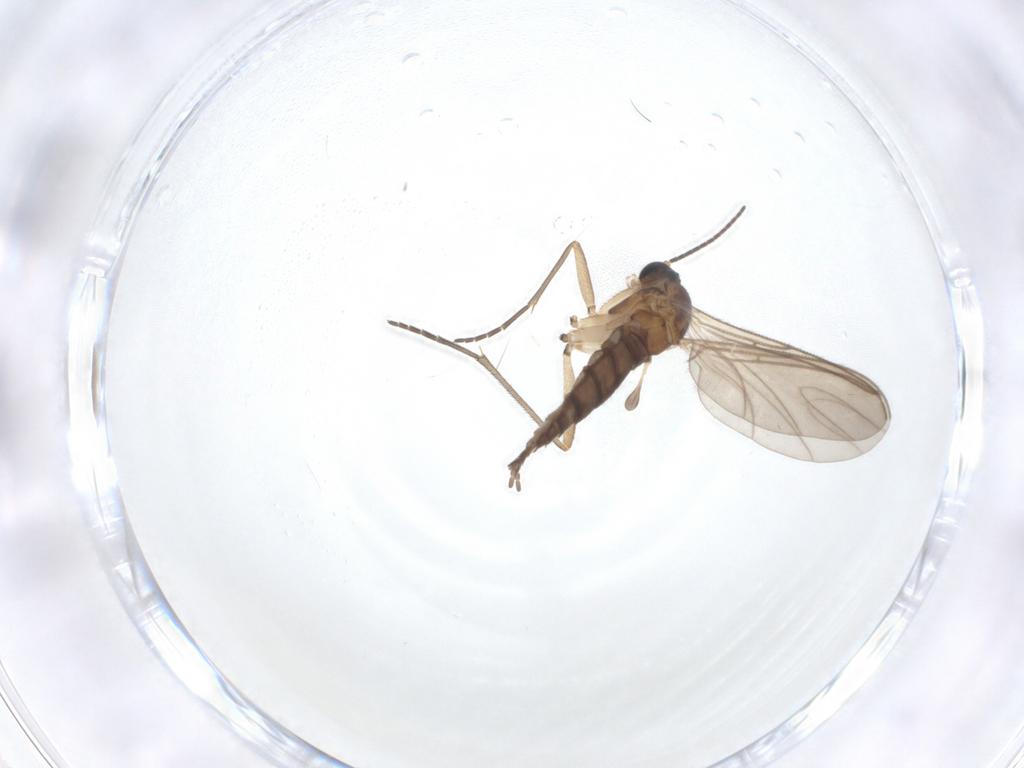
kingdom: Animalia
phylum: Arthropoda
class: Insecta
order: Diptera
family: Sciaridae
